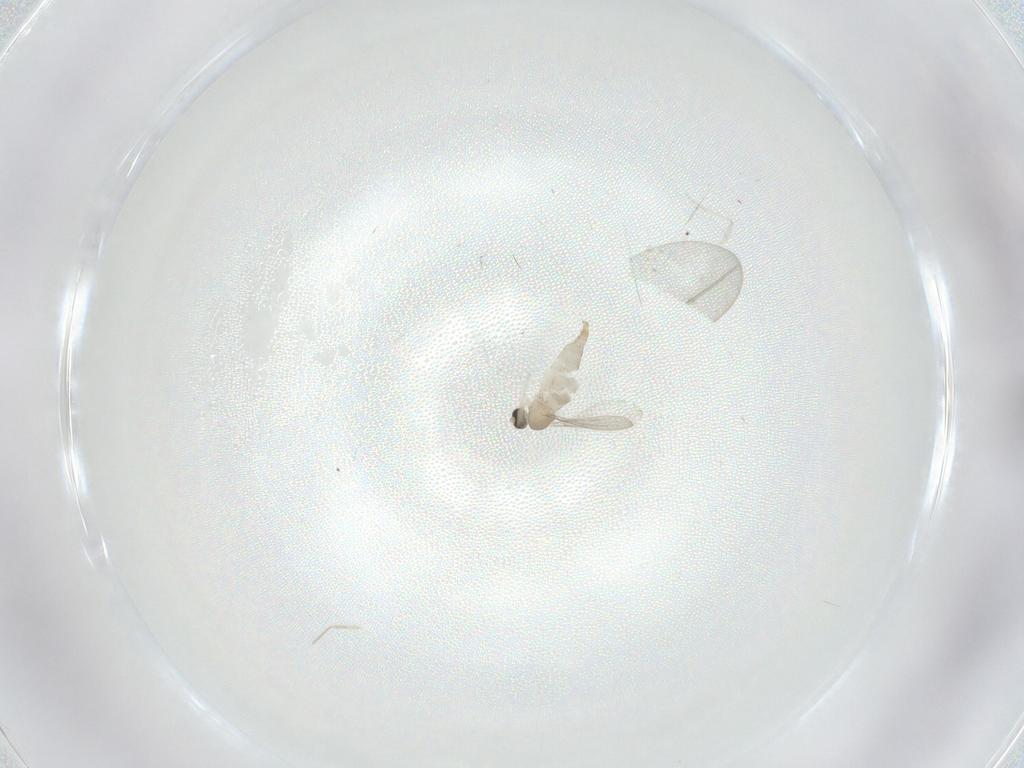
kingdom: Animalia
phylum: Arthropoda
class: Insecta
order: Diptera
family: Cecidomyiidae
